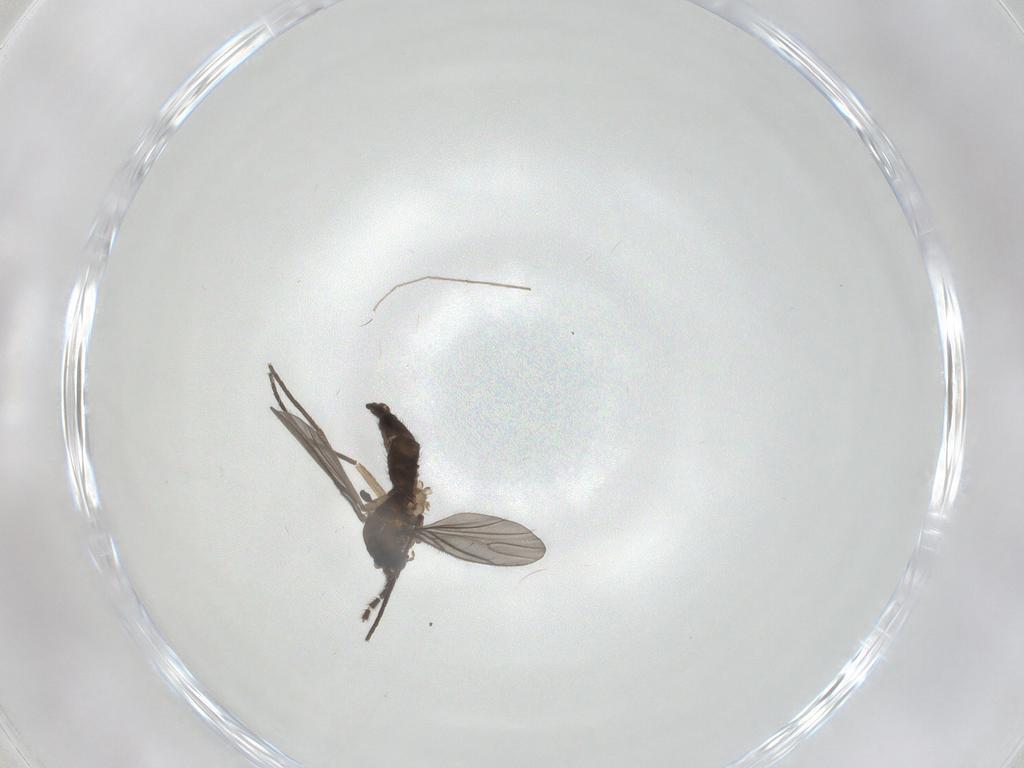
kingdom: Animalia
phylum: Arthropoda
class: Insecta
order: Diptera
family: Sciaridae
